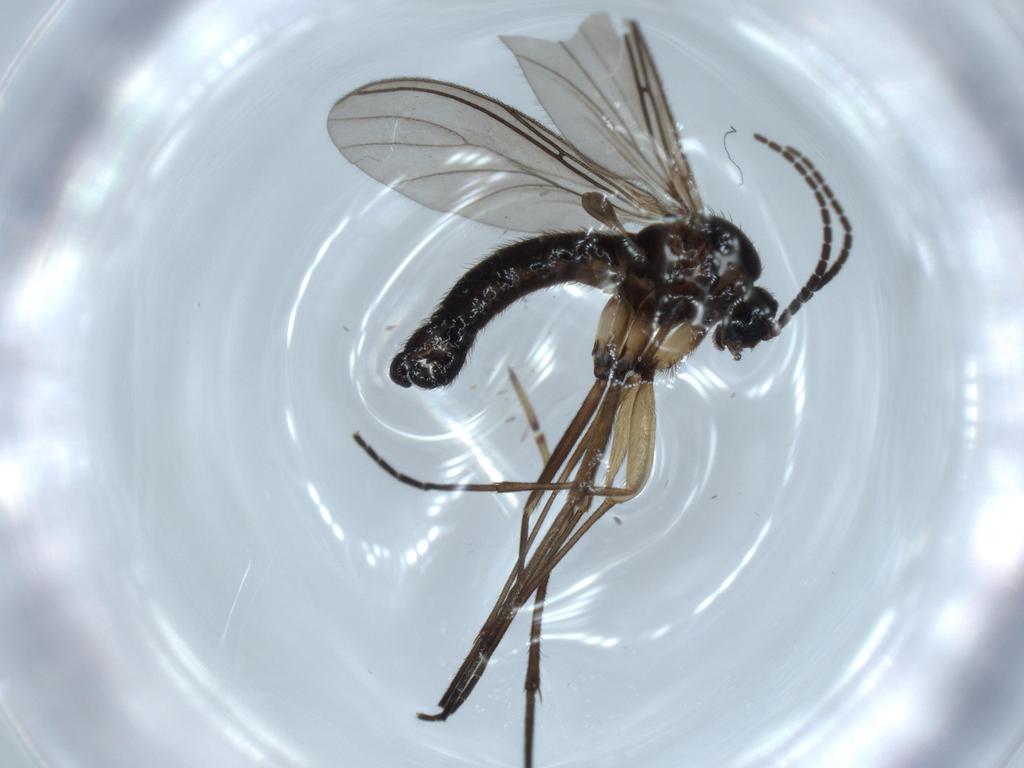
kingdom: Animalia
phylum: Arthropoda
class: Insecta
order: Diptera
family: Sciaridae
